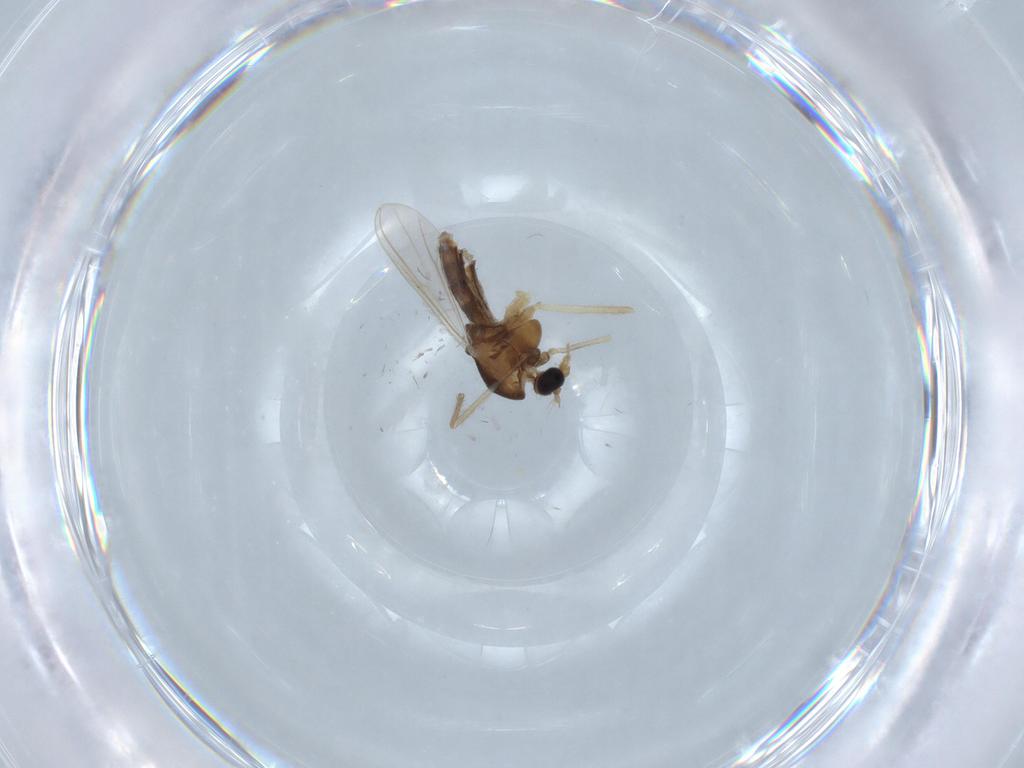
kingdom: Animalia
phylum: Arthropoda
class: Insecta
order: Diptera
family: Chironomidae
